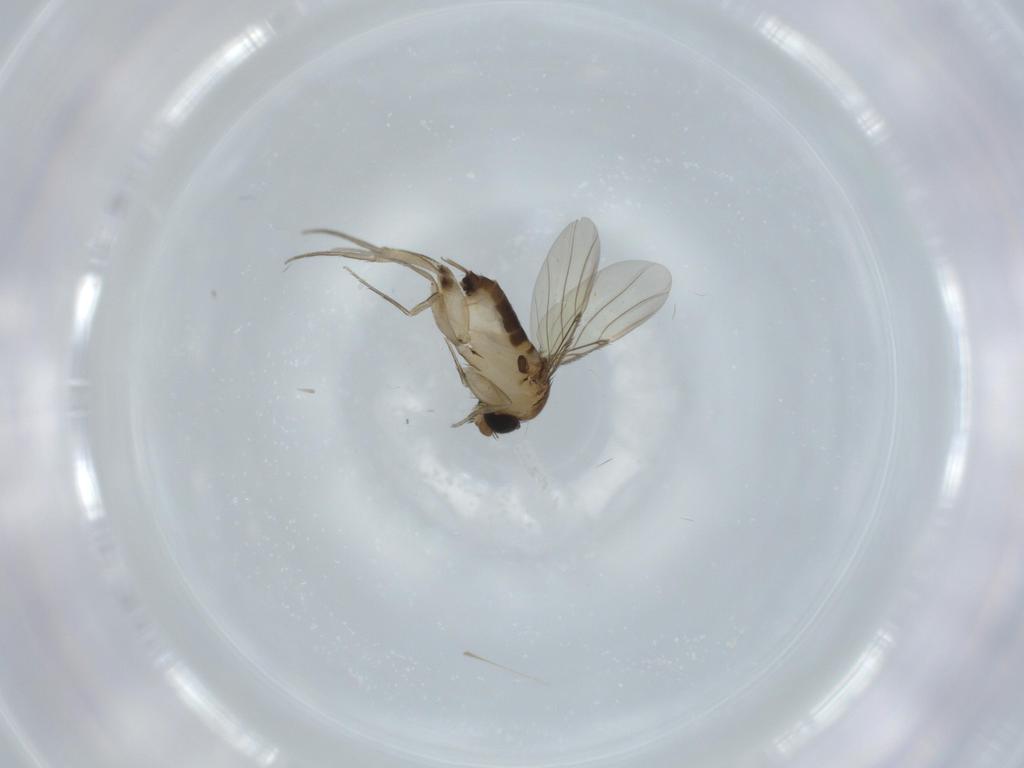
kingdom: Animalia
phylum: Arthropoda
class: Insecta
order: Diptera
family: Phoridae
